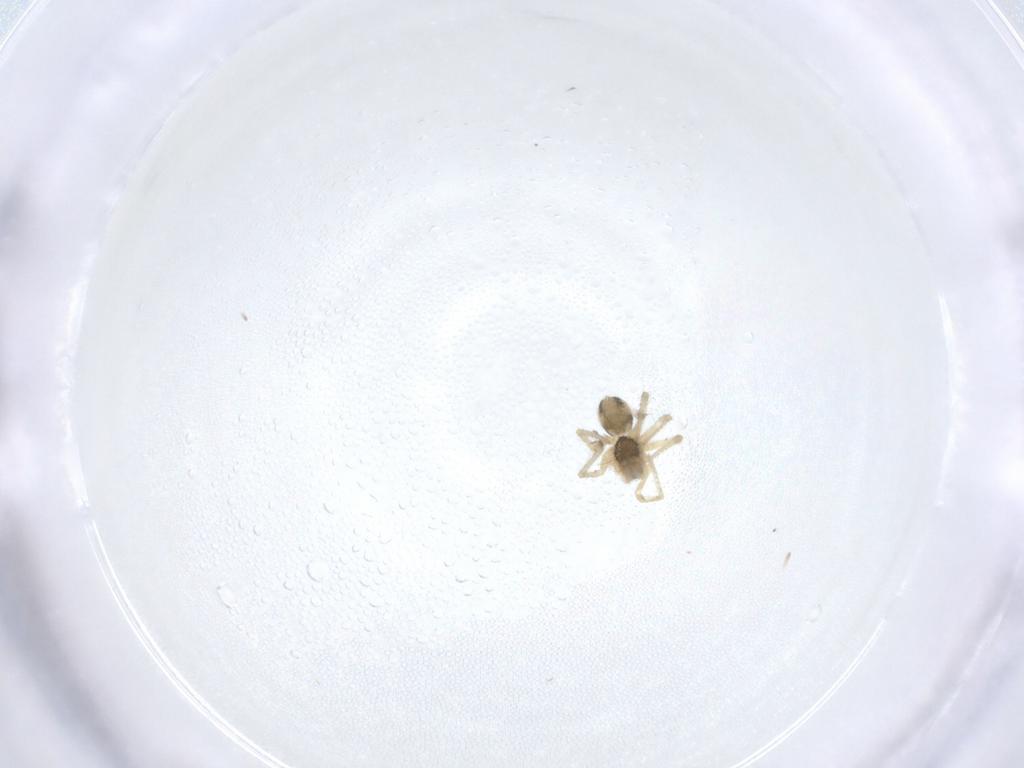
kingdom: Animalia
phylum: Arthropoda
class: Arachnida
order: Araneae
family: Linyphiidae
